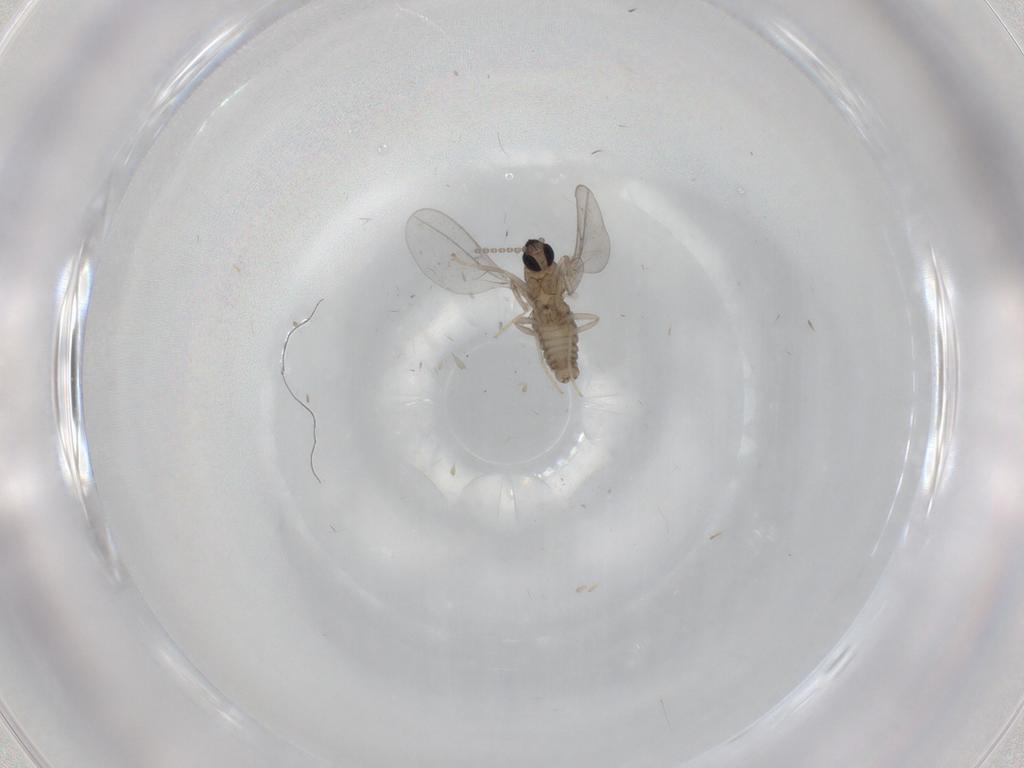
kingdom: Animalia
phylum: Arthropoda
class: Insecta
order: Diptera
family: Cecidomyiidae
